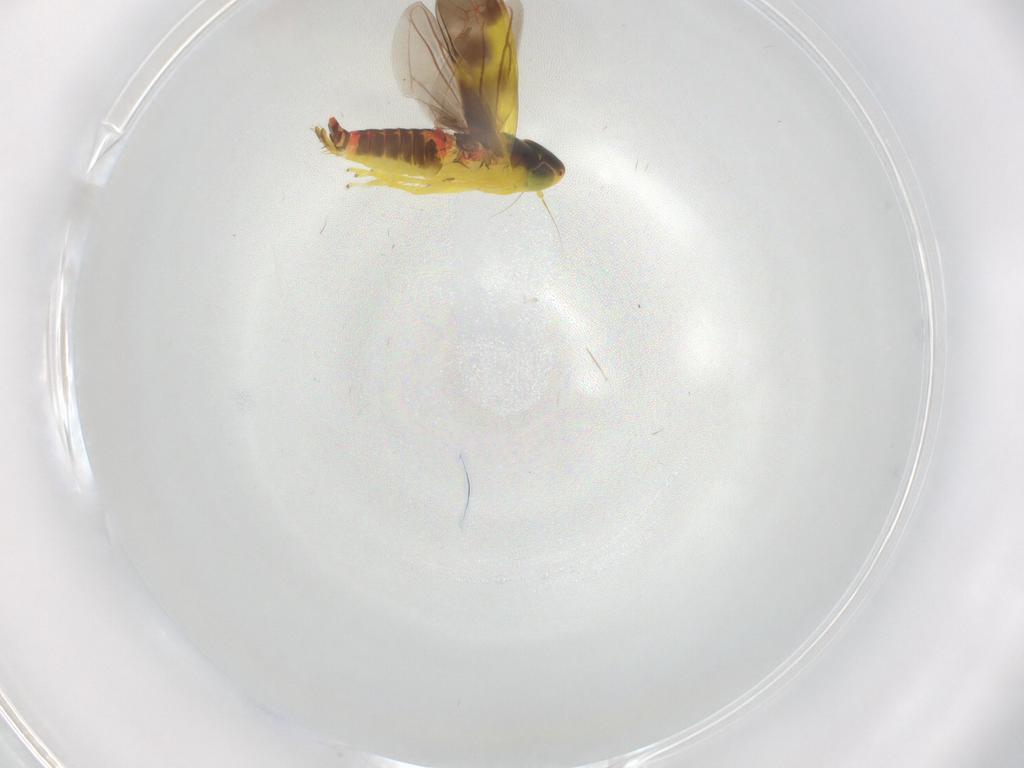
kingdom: Animalia
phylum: Arthropoda
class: Insecta
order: Hemiptera
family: Cicadellidae
